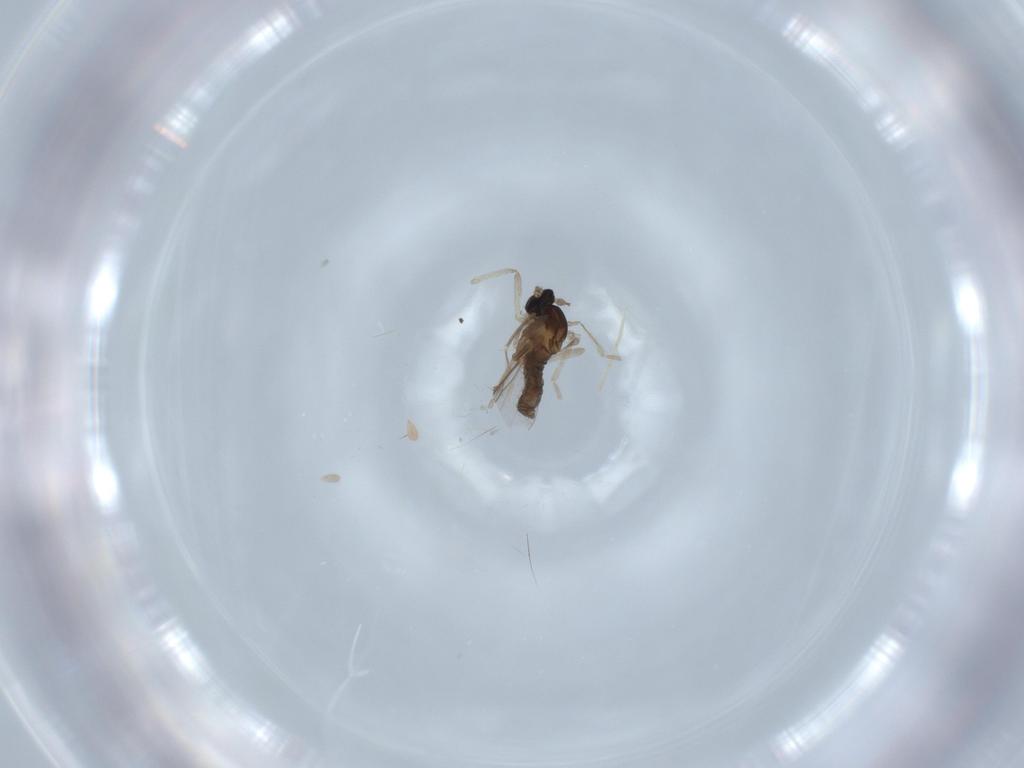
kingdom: Animalia
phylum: Arthropoda
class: Insecta
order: Diptera
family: Cecidomyiidae
